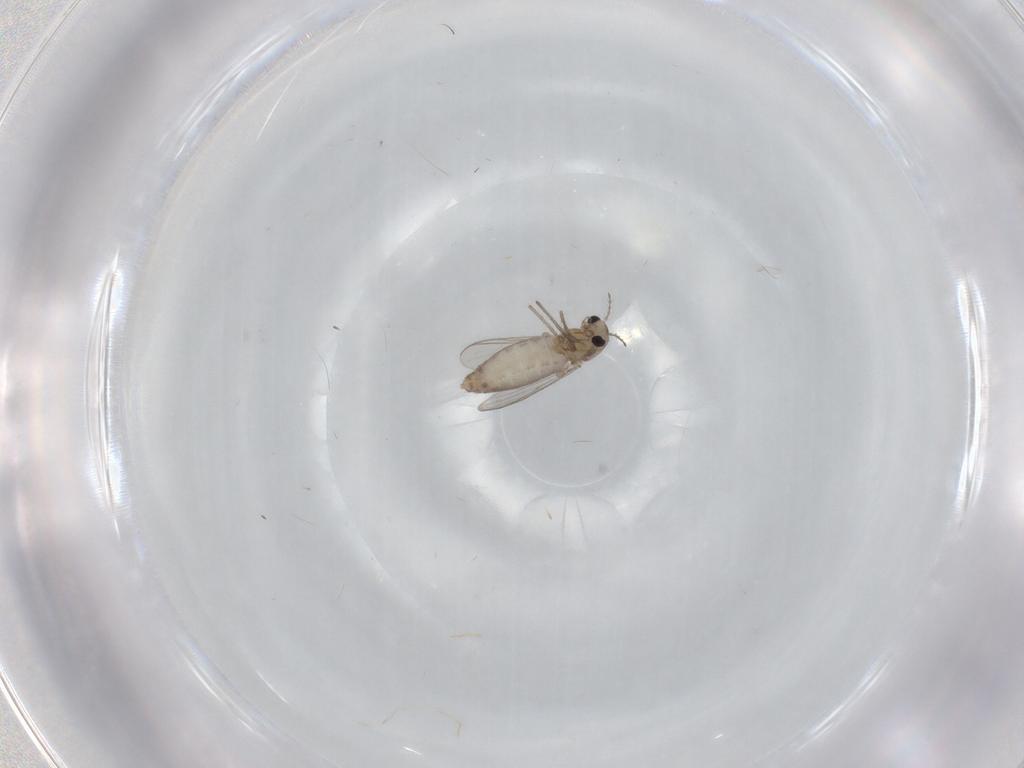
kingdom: Animalia
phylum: Arthropoda
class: Insecta
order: Diptera
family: Chironomidae
